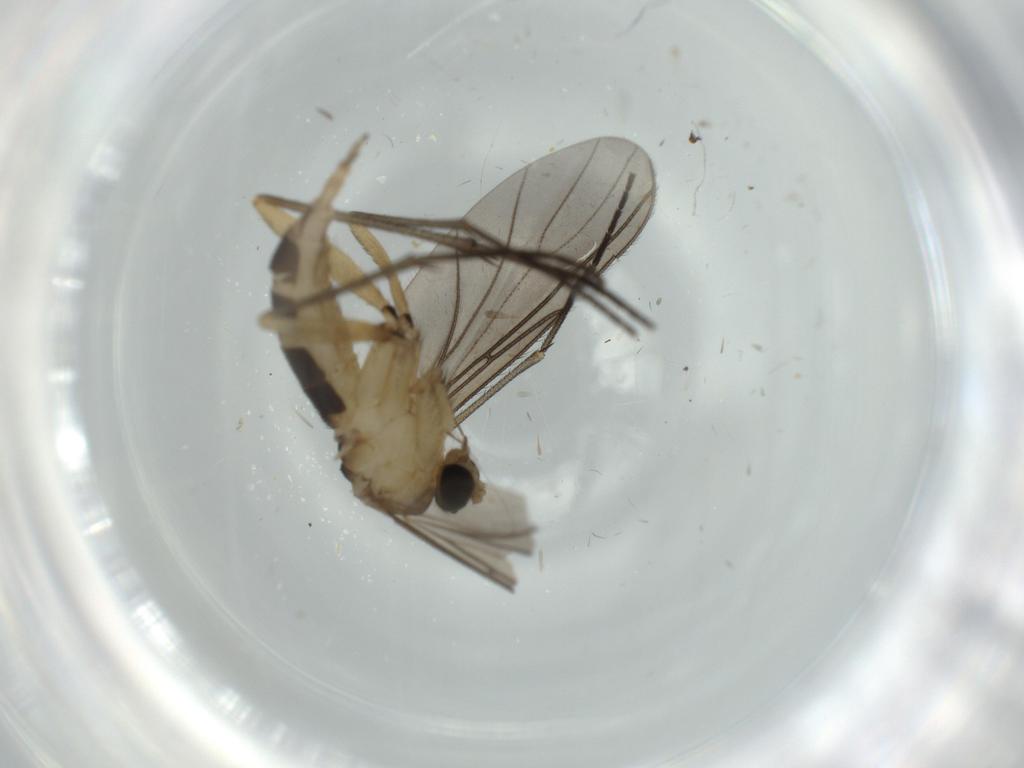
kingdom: Animalia
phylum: Arthropoda
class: Insecta
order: Diptera
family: Sciaridae
